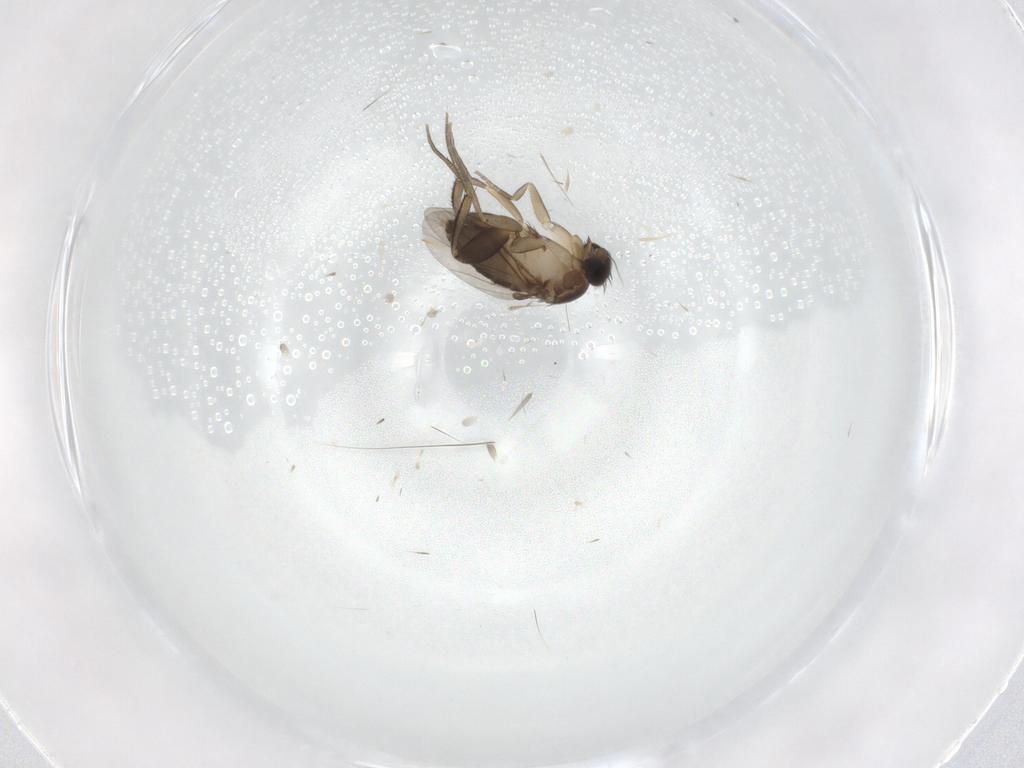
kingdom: Animalia
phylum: Arthropoda
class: Insecta
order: Diptera
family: Phoridae
